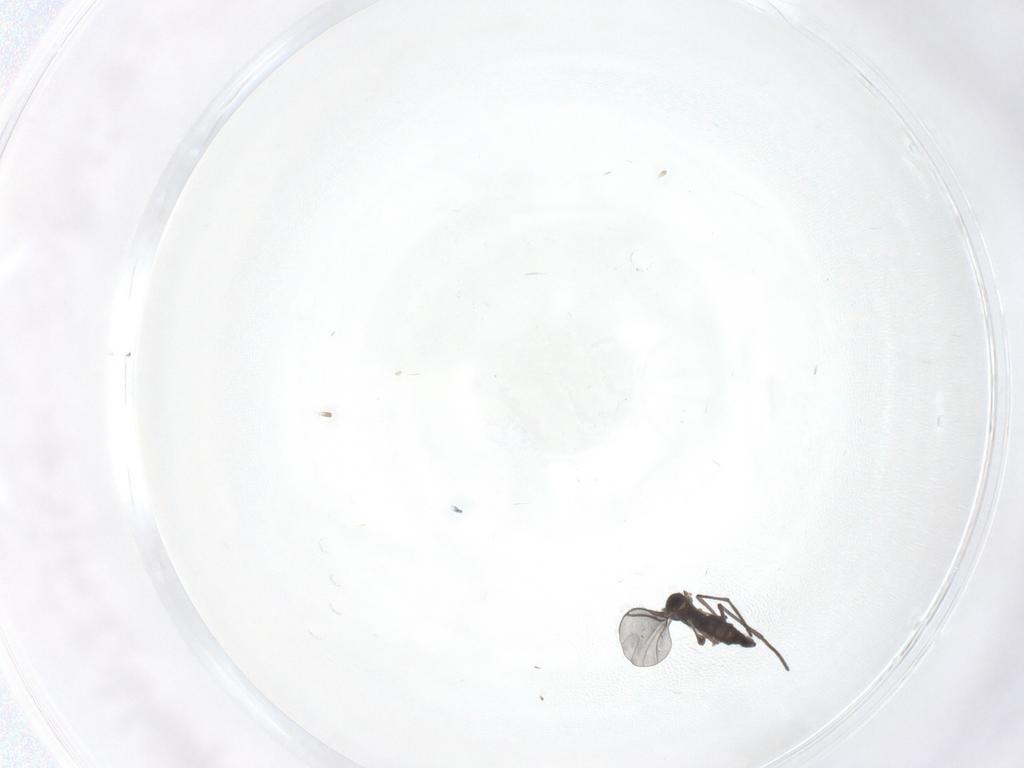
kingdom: Animalia
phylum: Arthropoda
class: Insecta
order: Diptera
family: Sciaridae
